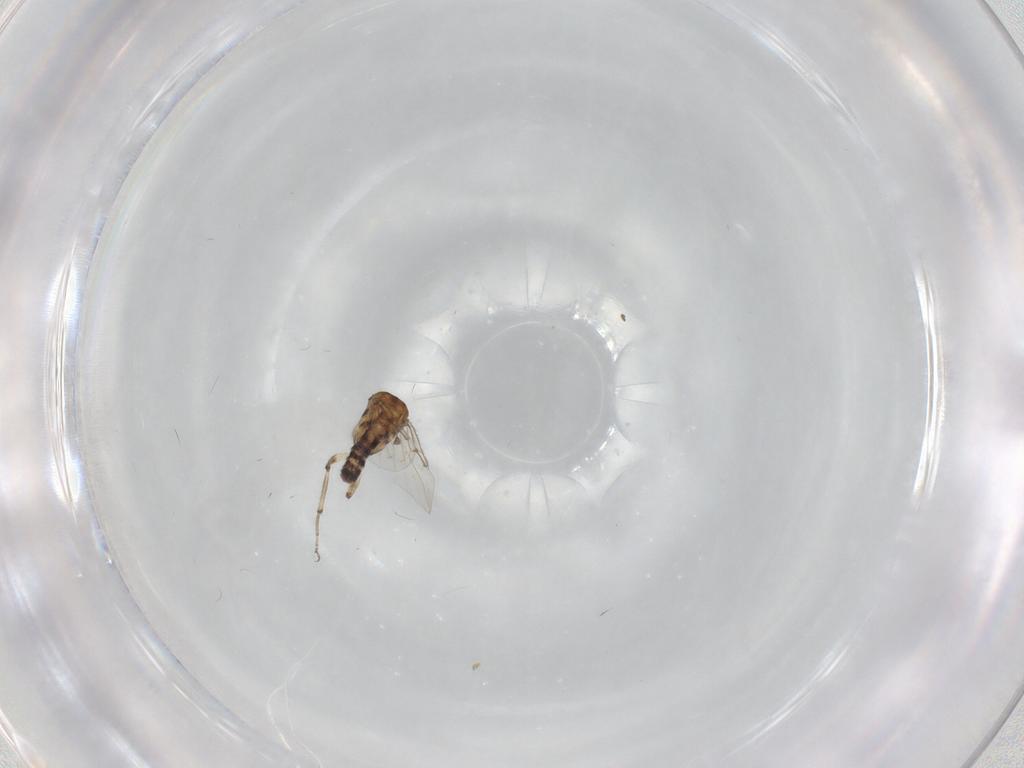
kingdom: Animalia
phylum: Arthropoda
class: Insecta
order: Diptera
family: Ceratopogonidae
